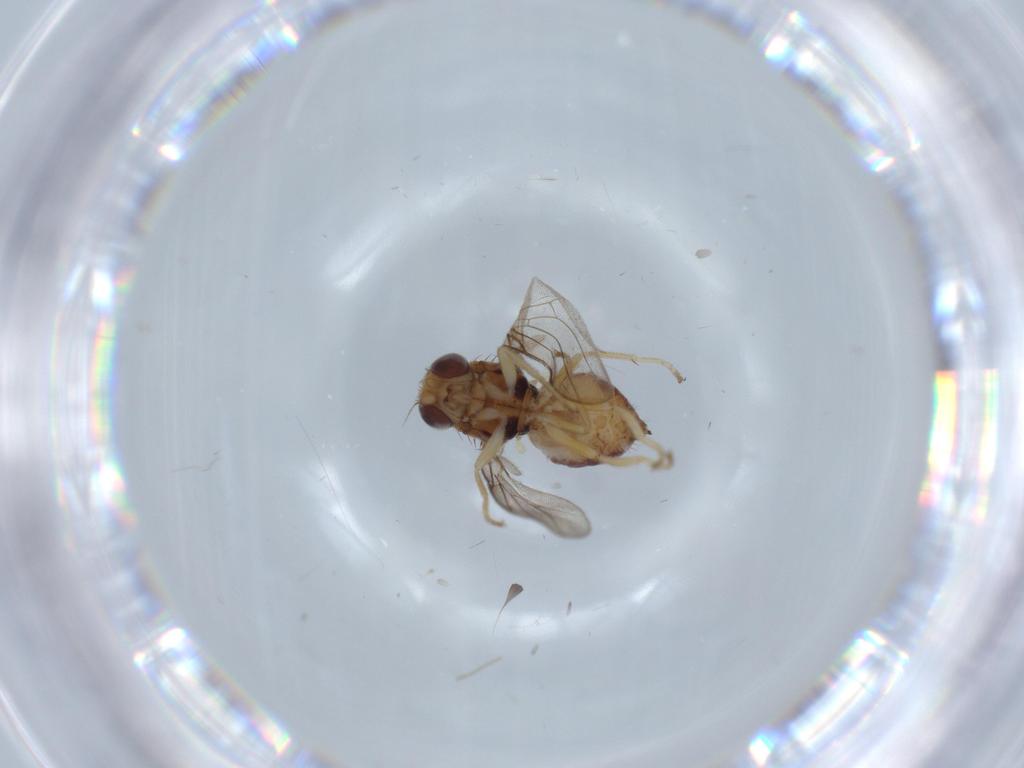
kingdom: Animalia
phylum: Arthropoda
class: Insecta
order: Diptera
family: Chloropidae
